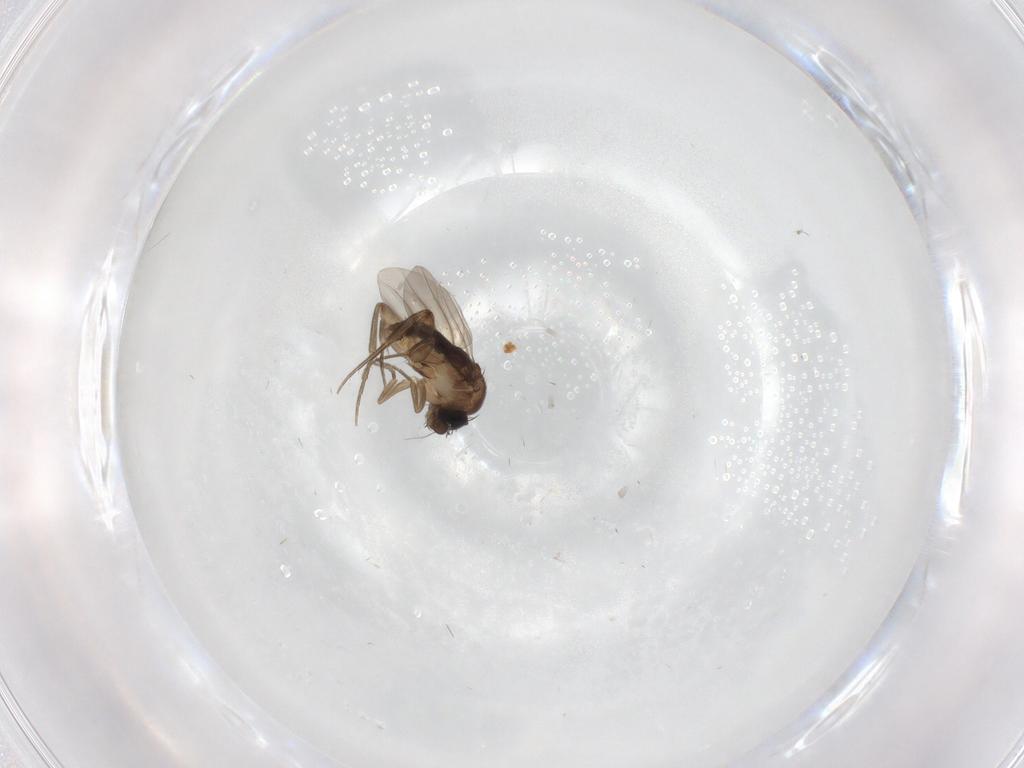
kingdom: Animalia
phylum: Arthropoda
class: Insecta
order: Diptera
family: Phoridae
